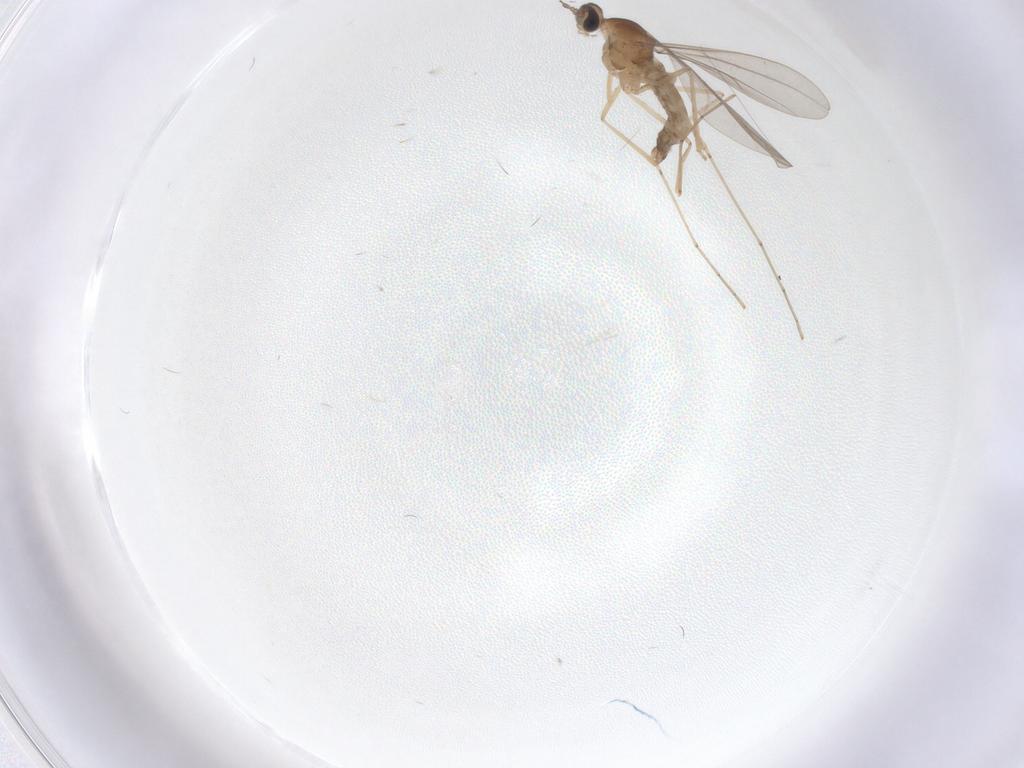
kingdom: Animalia
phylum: Arthropoda
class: Insecta
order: Diptera
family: Cecidomyiidae
